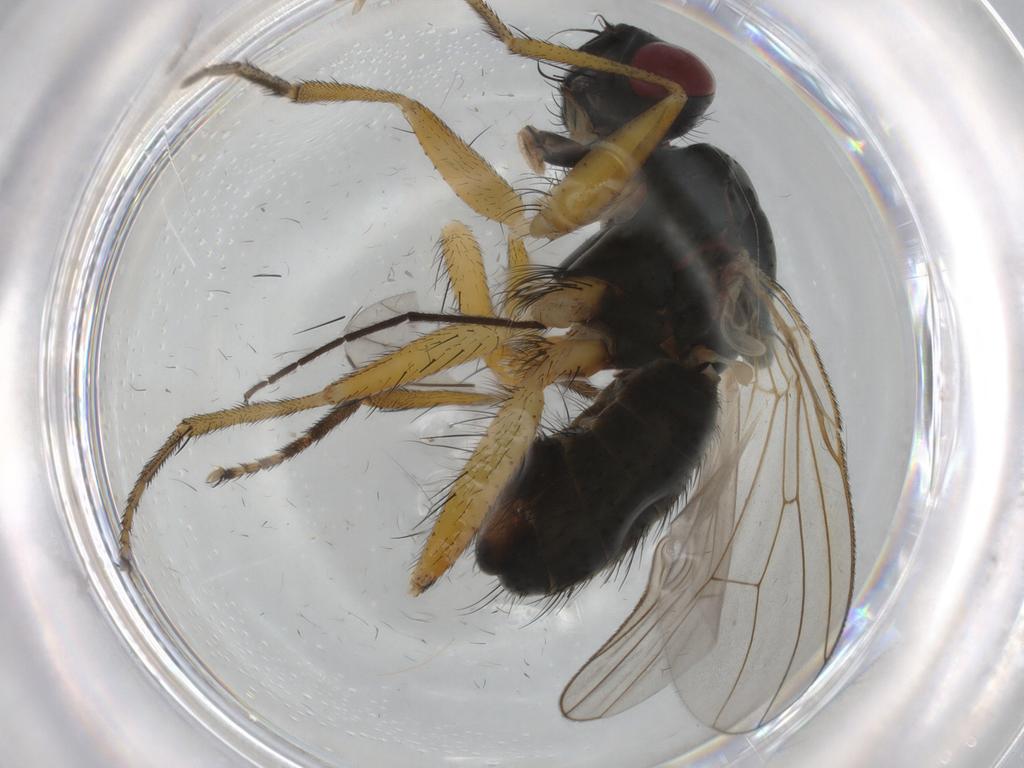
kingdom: Animalia
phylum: Arthropoda
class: Insecta
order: Diptera
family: Muscidae
